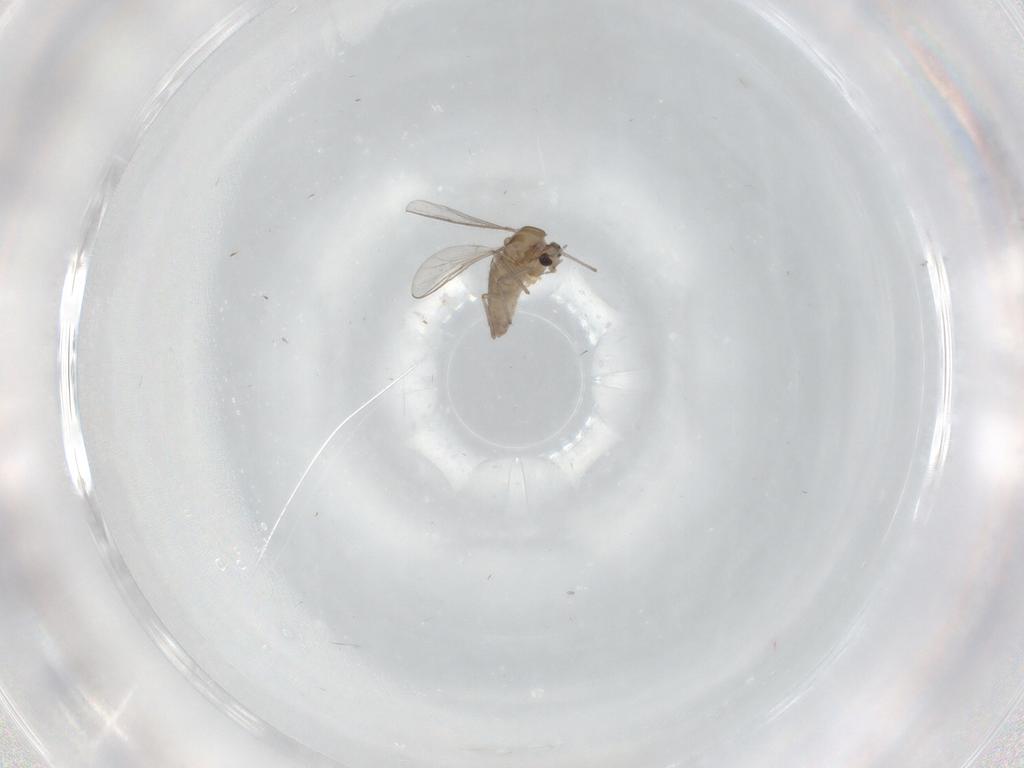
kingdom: Animalia
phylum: Arthropoda
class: Insecta
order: Diptera
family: Chironomidae
